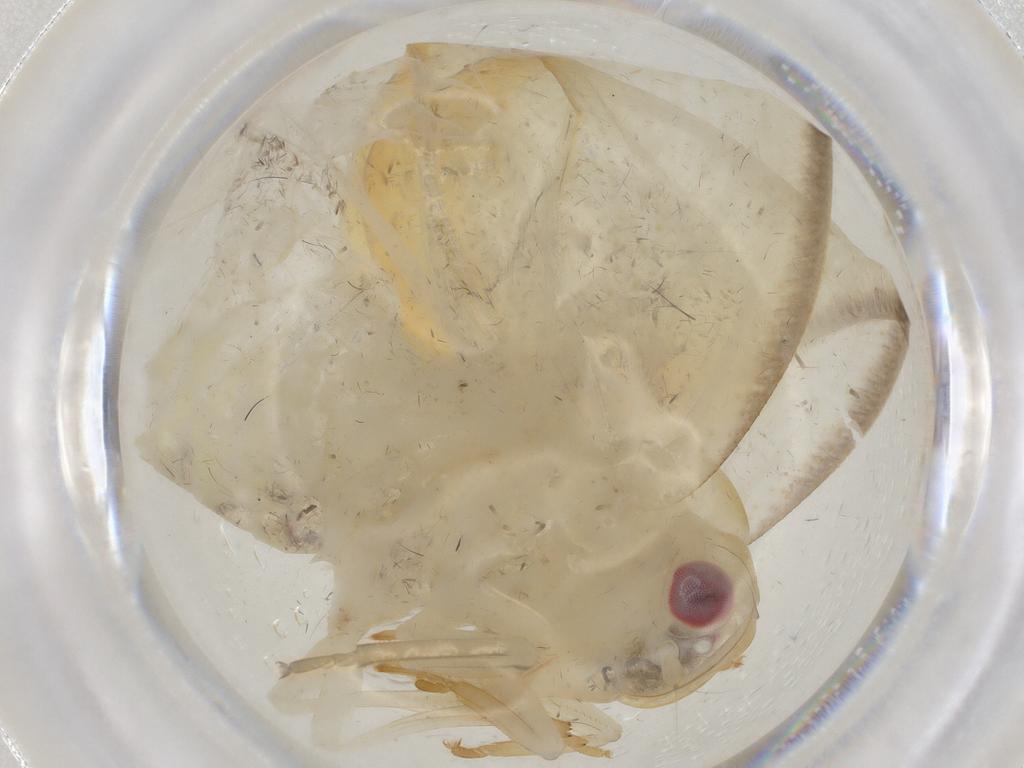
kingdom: Animalia
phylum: Arthropoda
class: Insecta
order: Hemiptera
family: Flatidae
